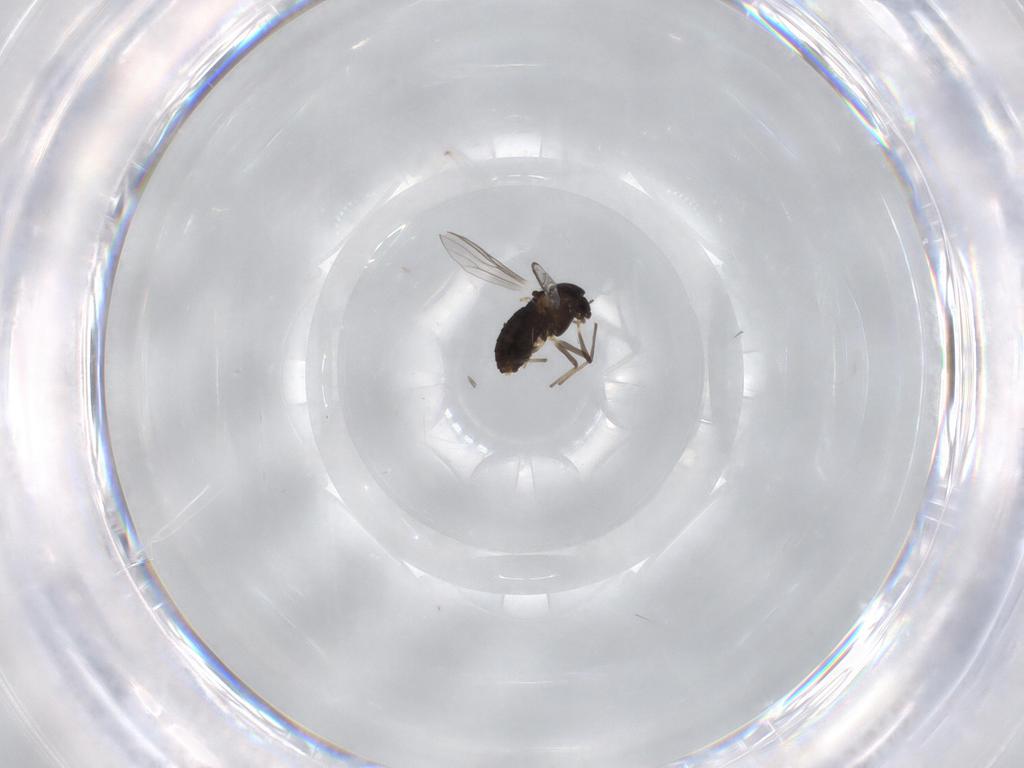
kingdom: Animalia
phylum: Arthropoda
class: Insecta
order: Diptera
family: Chironomidae
